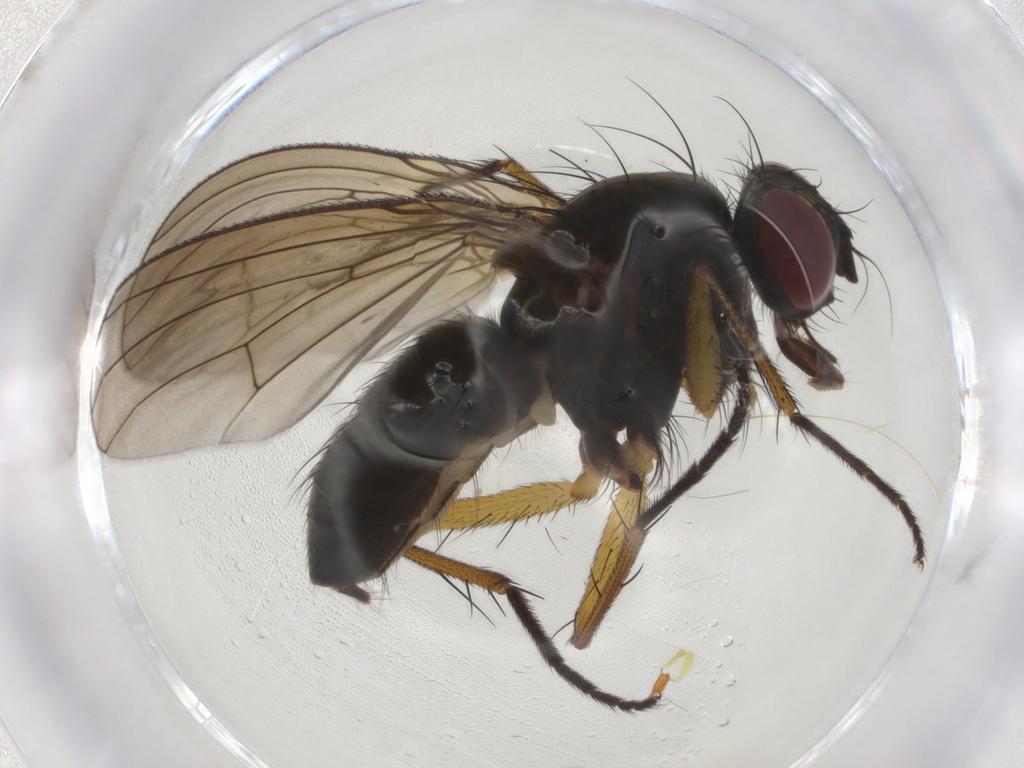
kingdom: Animalia
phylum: Arthropoda
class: Insecta
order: Diptera
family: Muscidae
